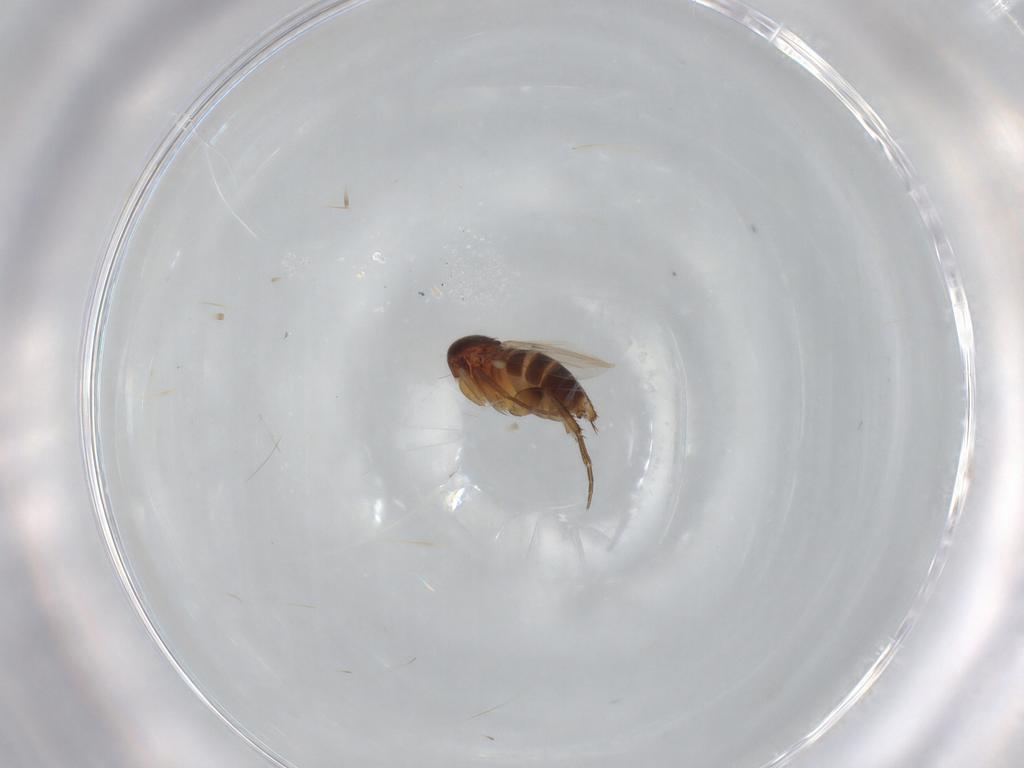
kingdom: Animalia
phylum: Arthropoda
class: Insecta
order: Diptera
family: Phoridae
